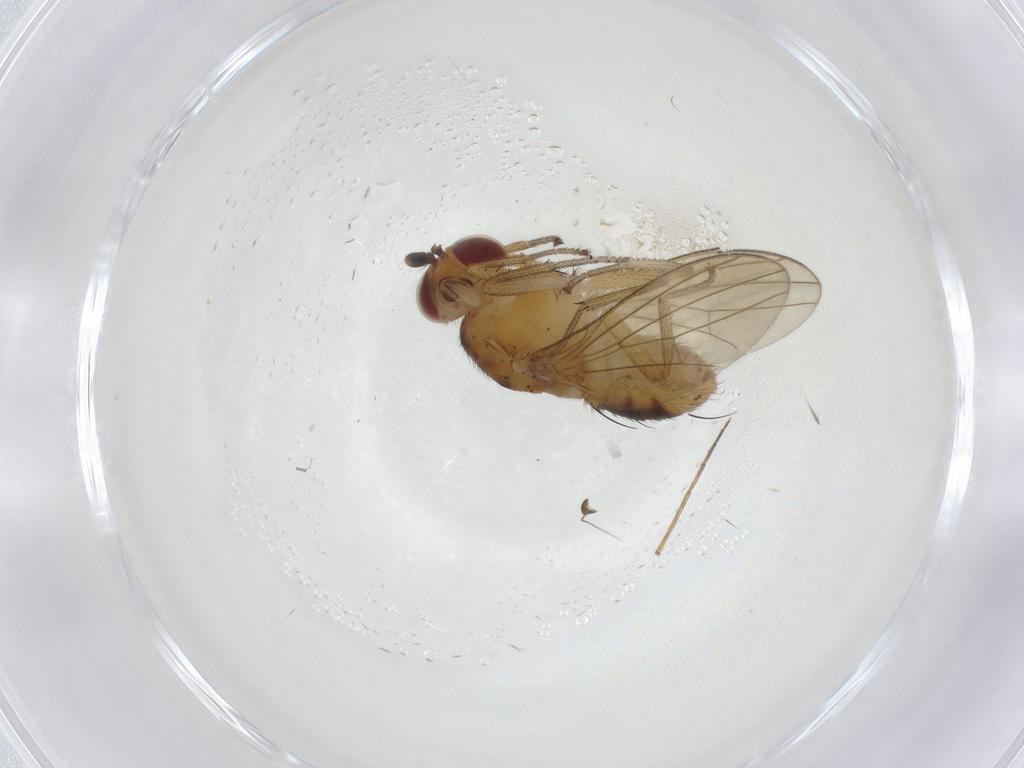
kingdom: Animalia
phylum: Arthropoda
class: Insecta
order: Diptera
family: Lauxaniidae
